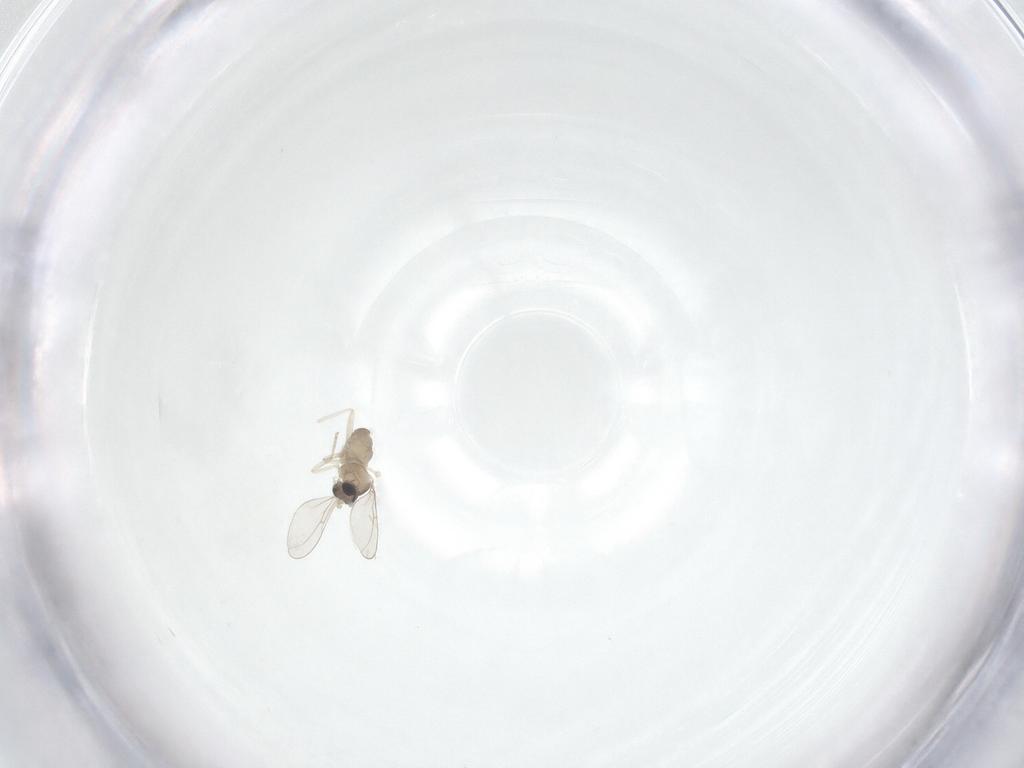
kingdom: Animalia
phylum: Arthropoda
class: Insecta
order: Diptera
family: Cecidomyiidae
